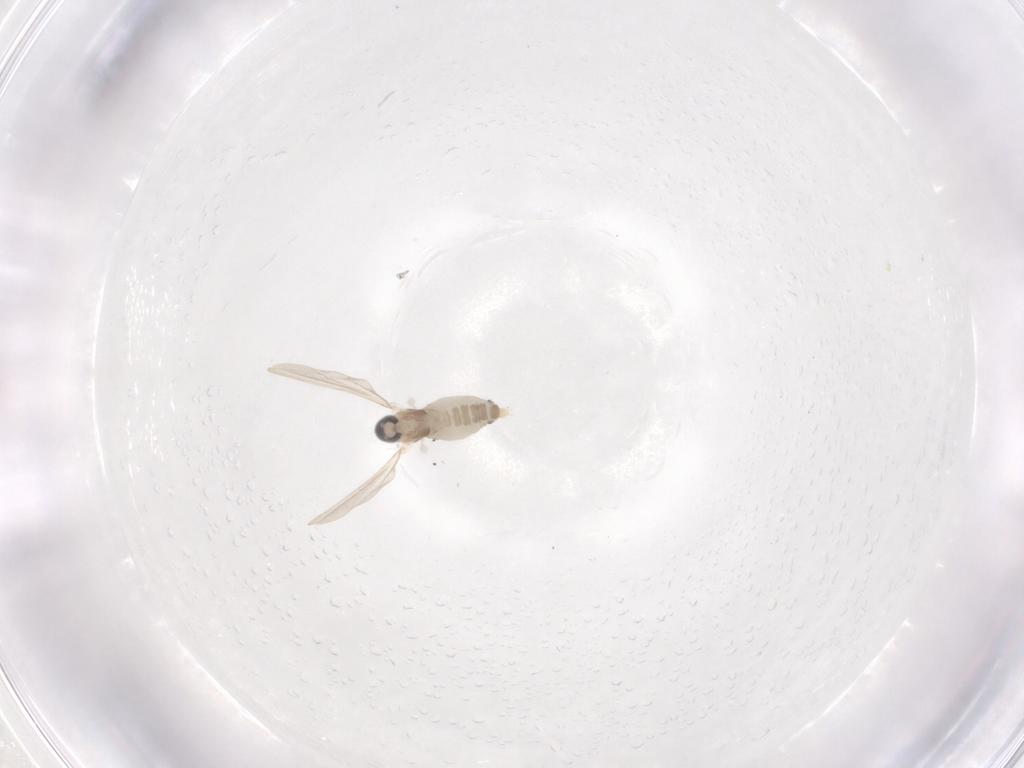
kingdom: Animalia
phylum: Arthropoda
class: Insecta
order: Diptera
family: Cecidomyiidae
